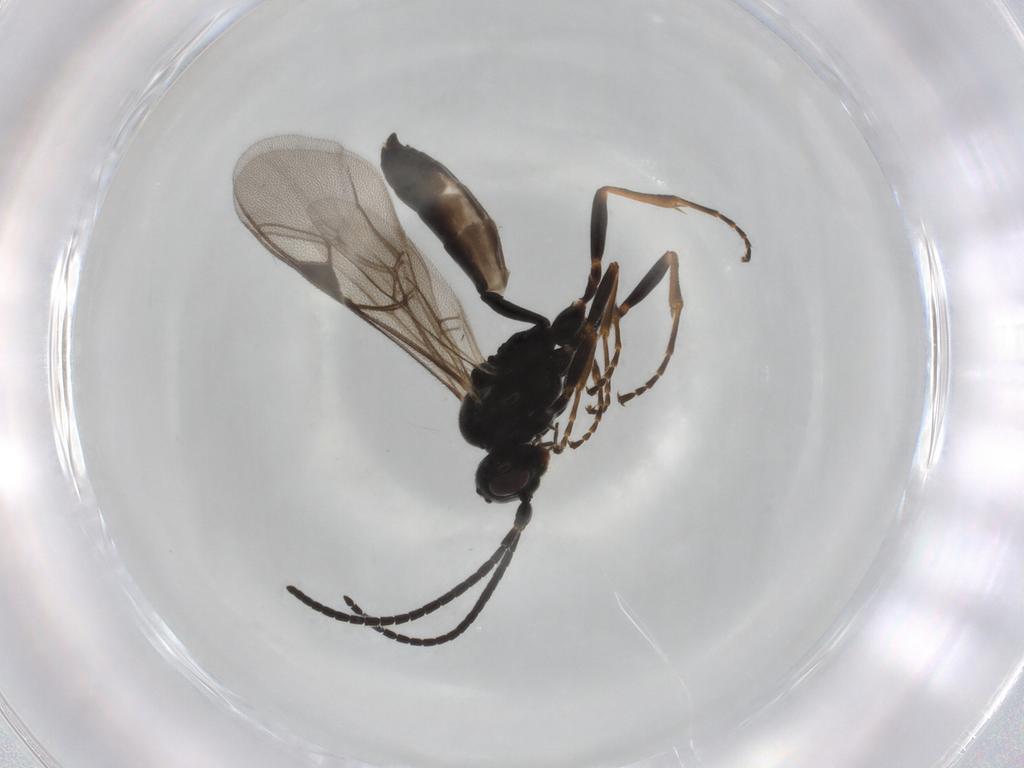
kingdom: Animalia
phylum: Arthropoda
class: Insecta
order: Hymenoptera
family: Ichneumonidae
